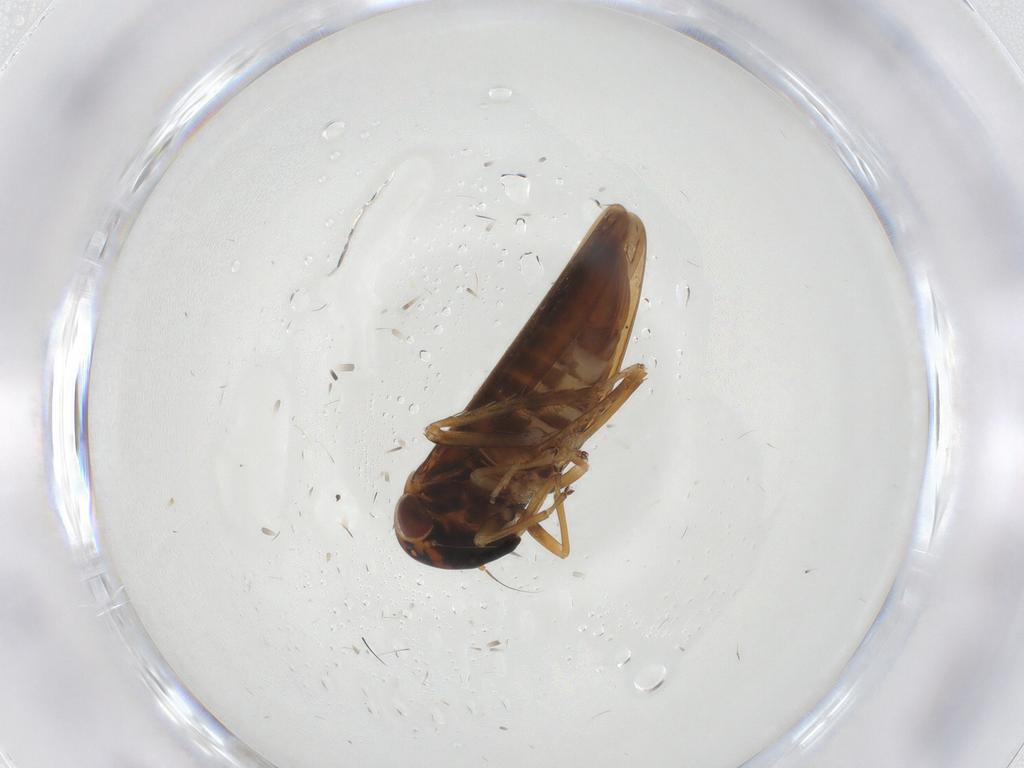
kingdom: Animalia
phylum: Arthropoda
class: Insecta
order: Hemiptera
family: Cicadellidae
